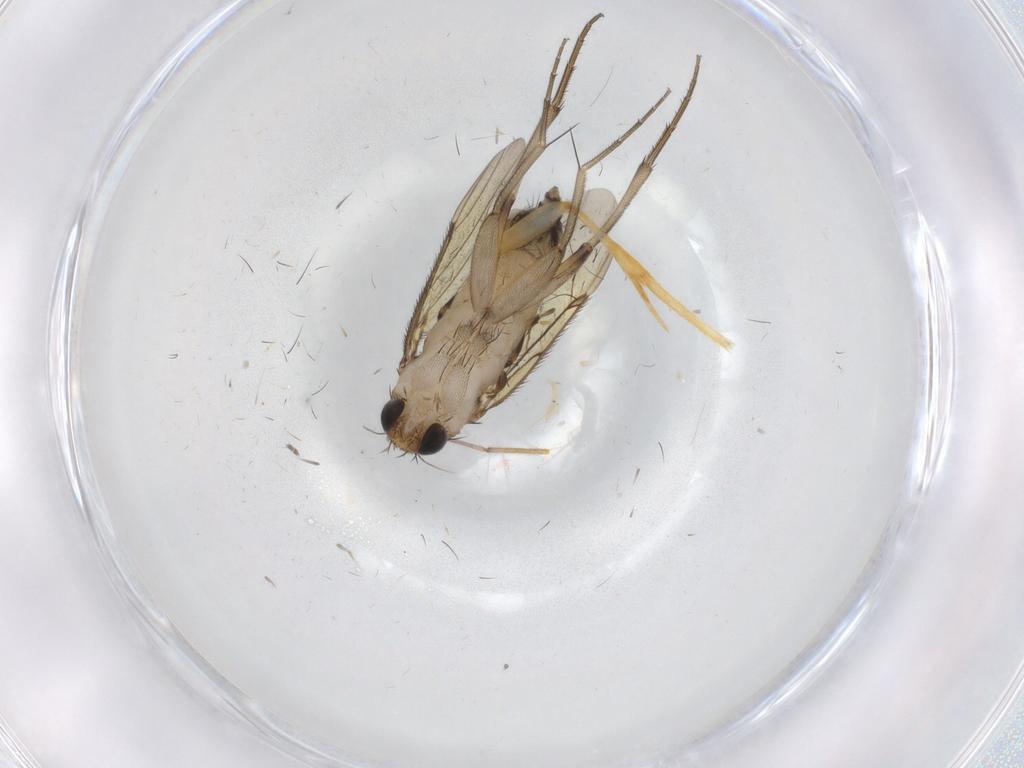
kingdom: Animalia
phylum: Arthropoda
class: Insecta
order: Diptera
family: Phoridae
